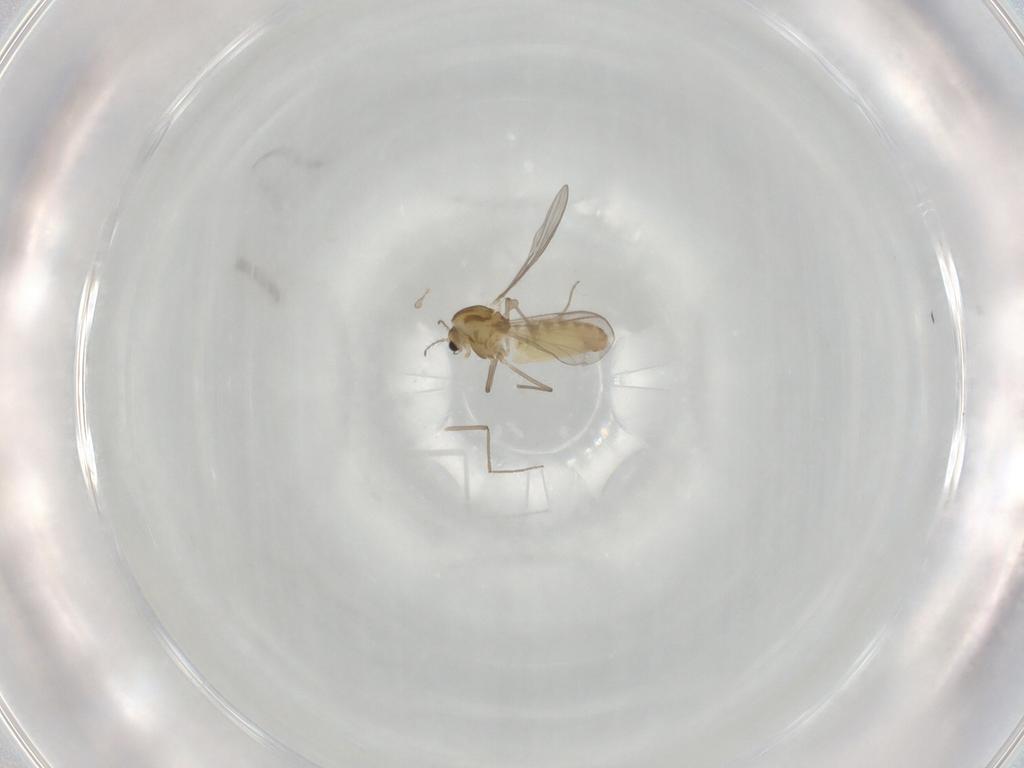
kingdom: Animalia
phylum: Arthropoda
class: Insecta
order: Diptera
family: Chironomidae
